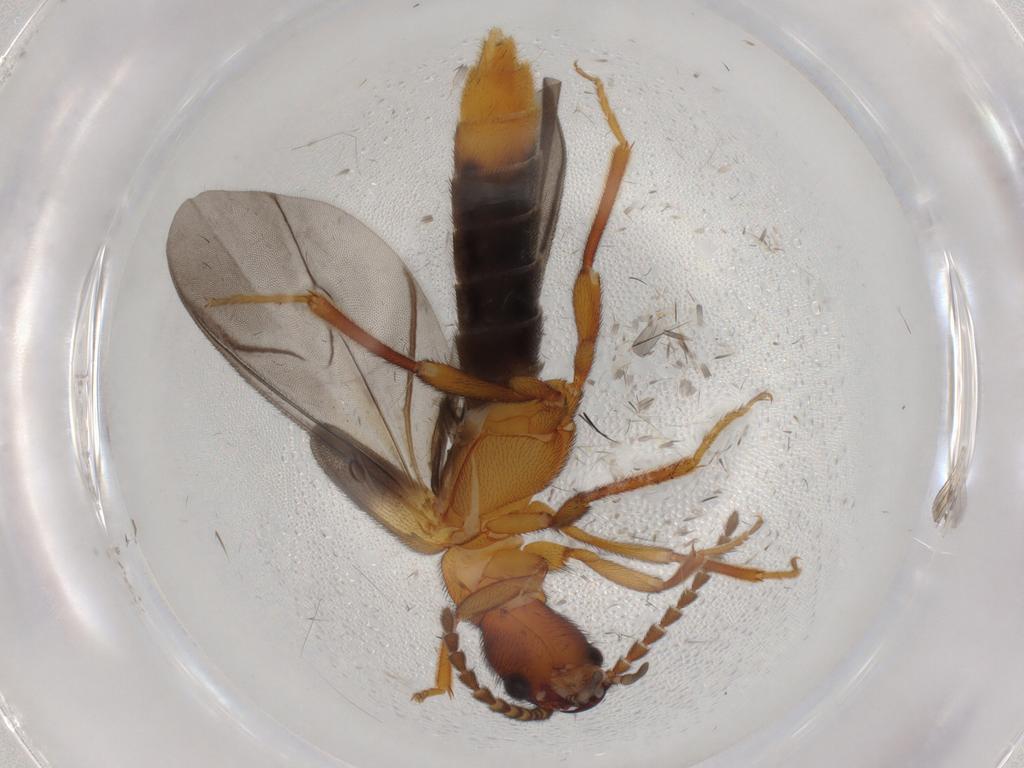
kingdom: Animalia
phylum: Arthropoda
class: Insecta
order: Coleoptera
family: Omethidae
